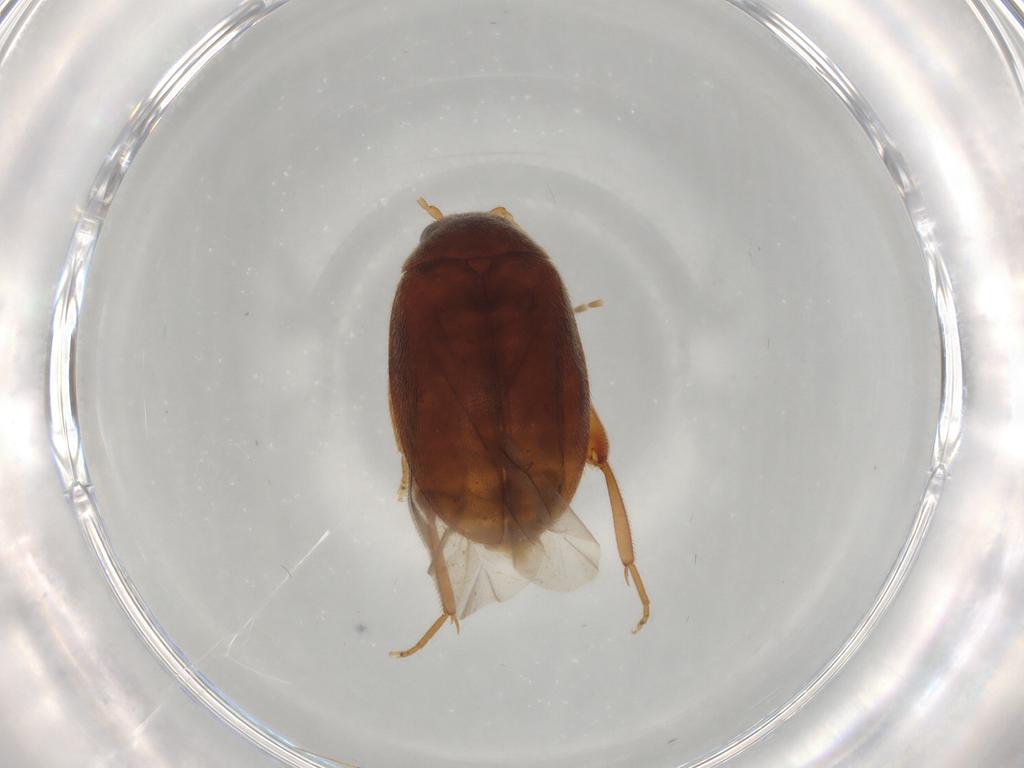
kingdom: Animalia
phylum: Arthropoda
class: Insecta
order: Coleoptera
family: Scirtidae
